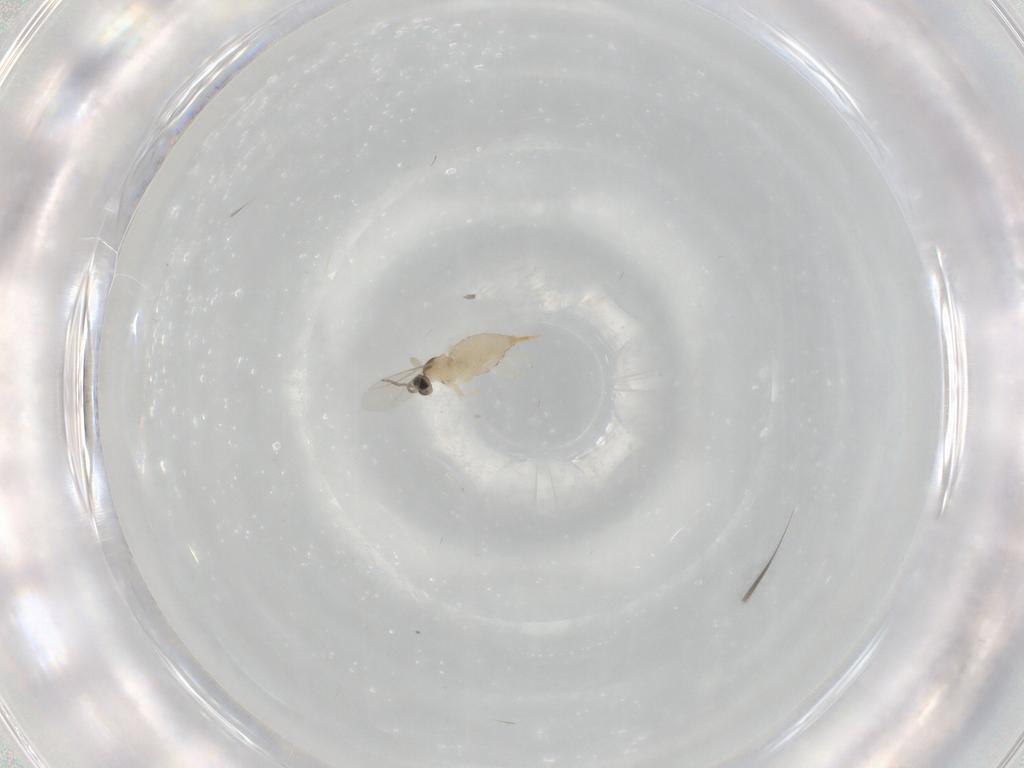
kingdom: Animalia
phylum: Arthropoda
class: Insecta
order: Diptera
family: Cecidomyiidae
